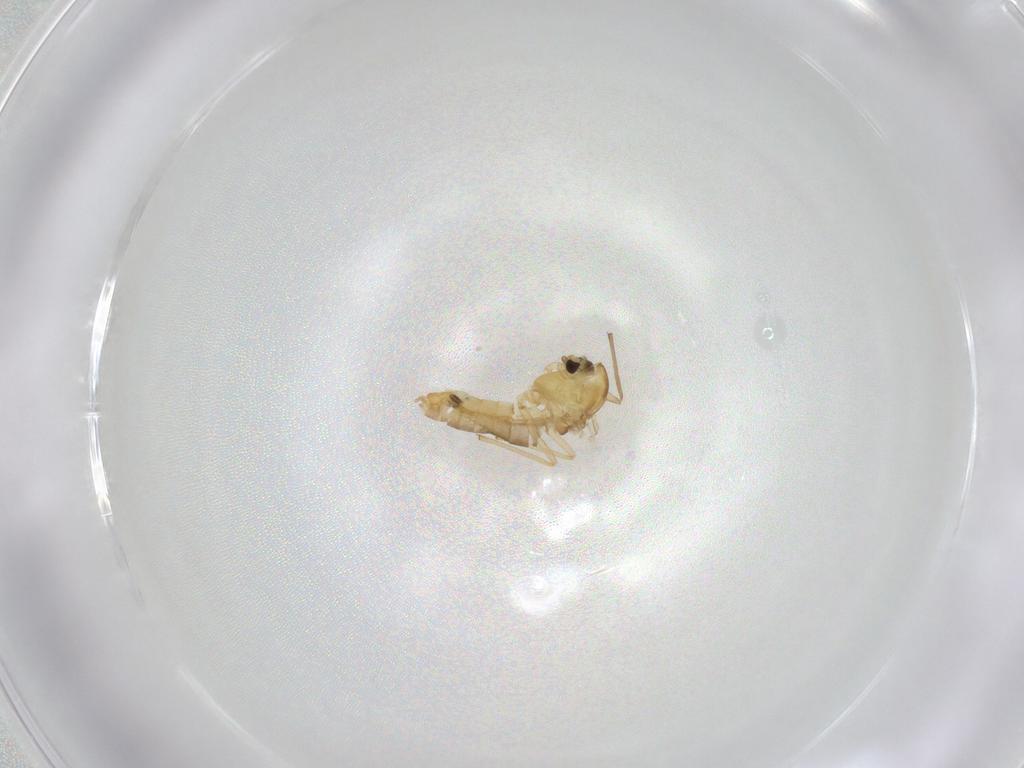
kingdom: Animalia
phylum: Arthropoda
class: Insecta
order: Diptera
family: Chironomidae
